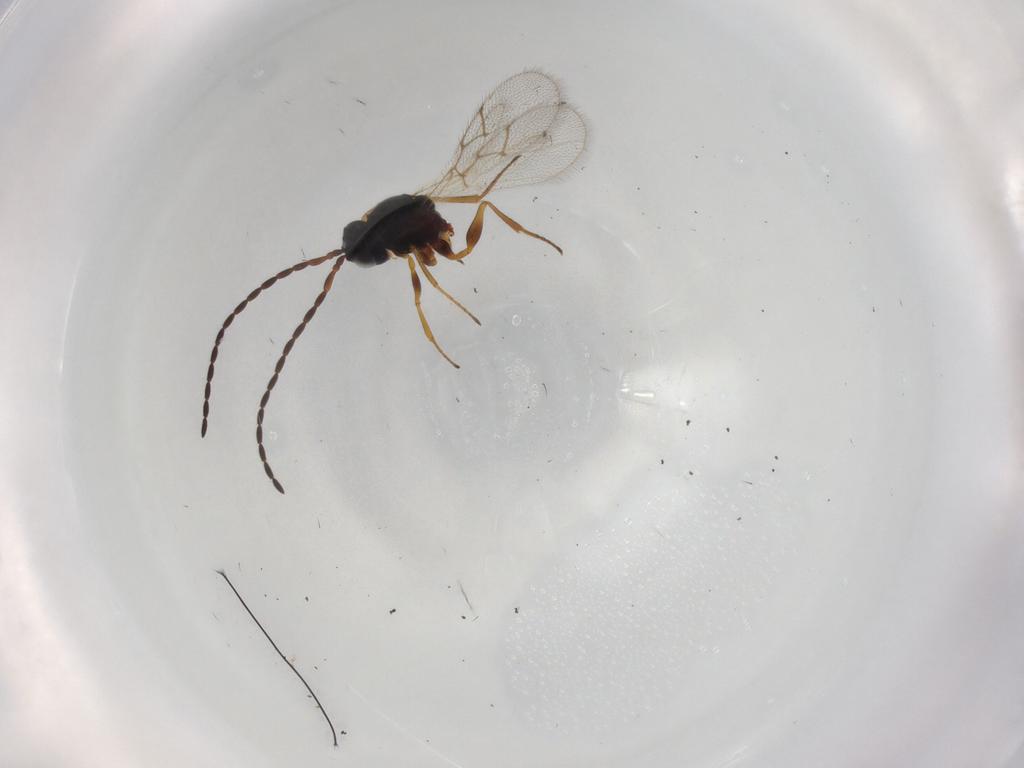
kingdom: Animalia
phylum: Arthropoda
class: Insecta
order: Hymenoptera
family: Figitidae
